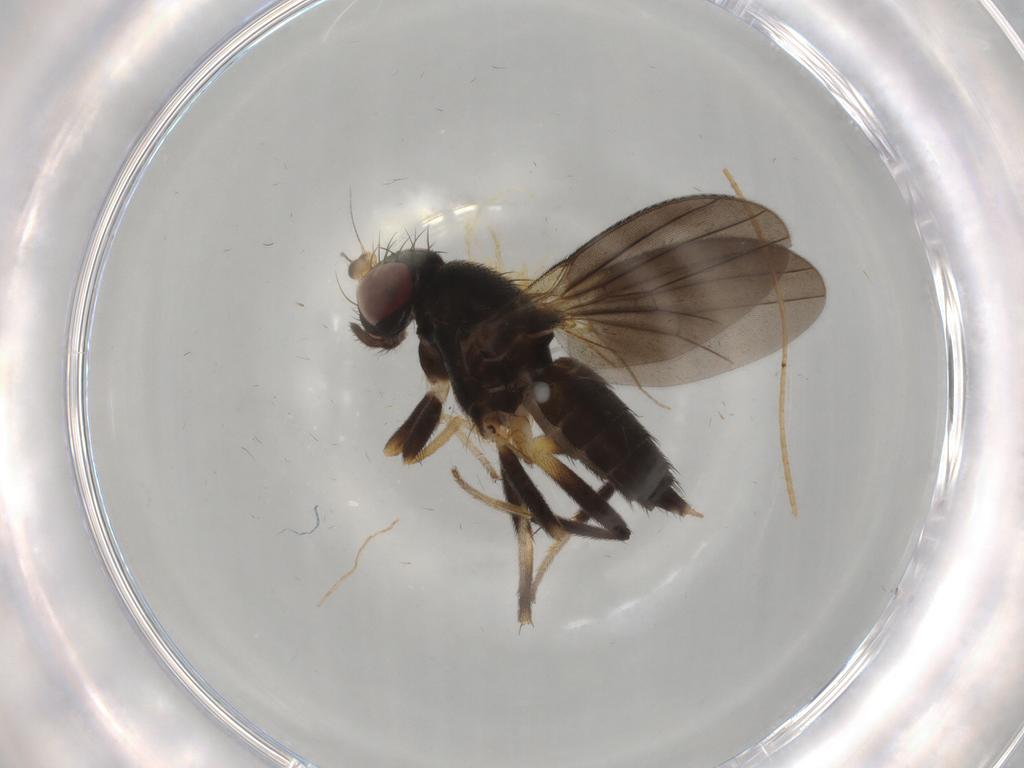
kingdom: Animalia
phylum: Arthropoda
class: Insecta
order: Diptera
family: Chironomidae
